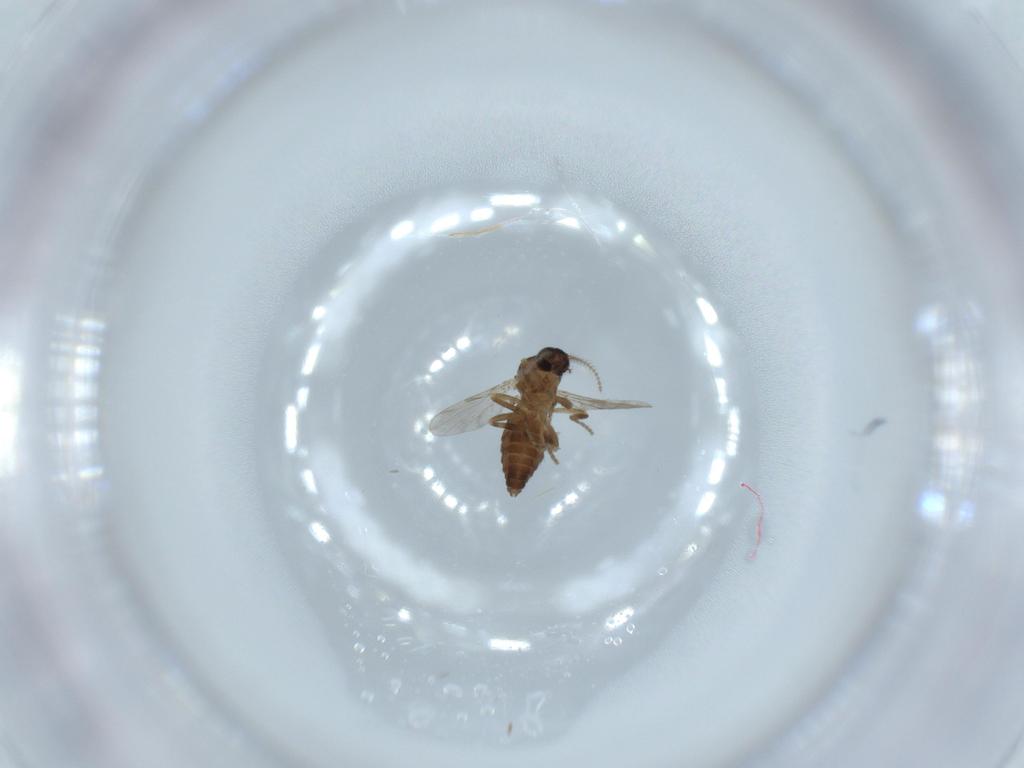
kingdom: Animalia
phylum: Arthropoda
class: Insecta
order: Diptera
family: Ceratopogonidae
